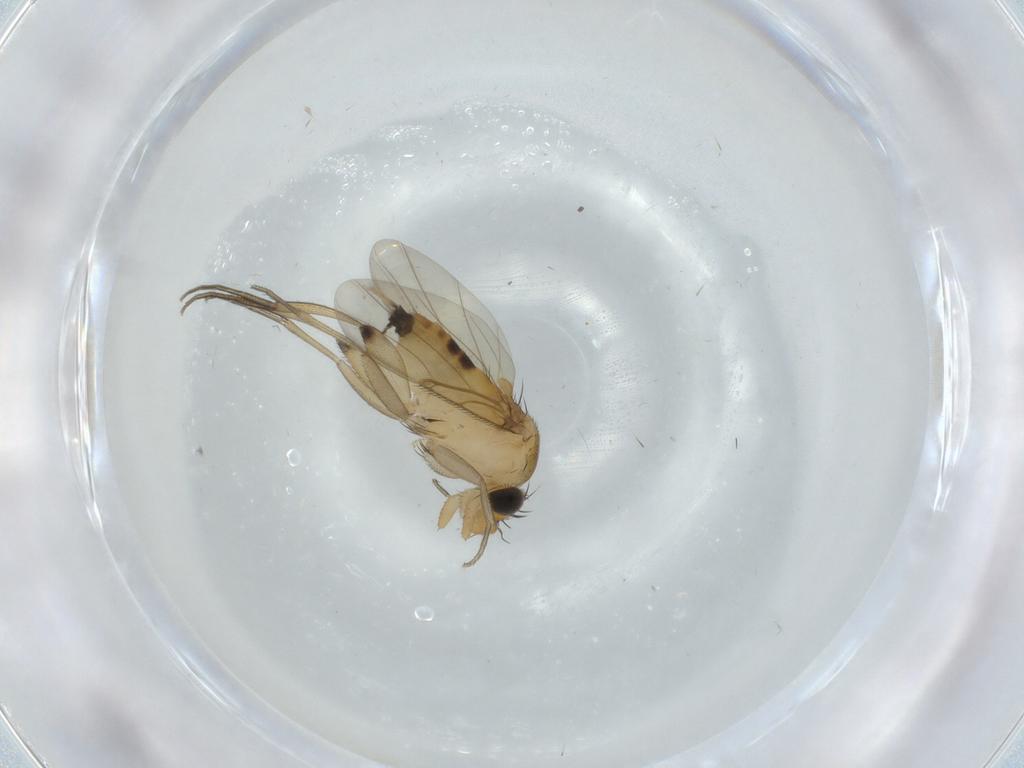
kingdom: Animalia
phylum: Arthropoda
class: Insecta
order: Diptera
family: Phoridae
